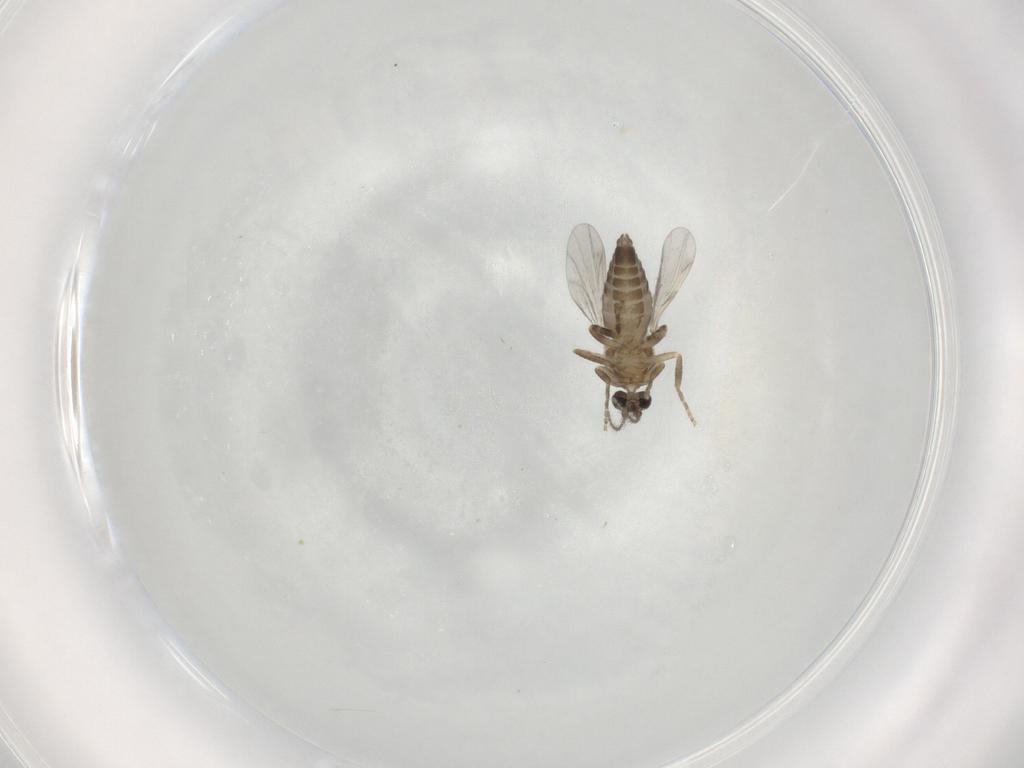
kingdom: Animalia
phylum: Arthropoda
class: Insecta
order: Diptera
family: Ceratopogonidae
